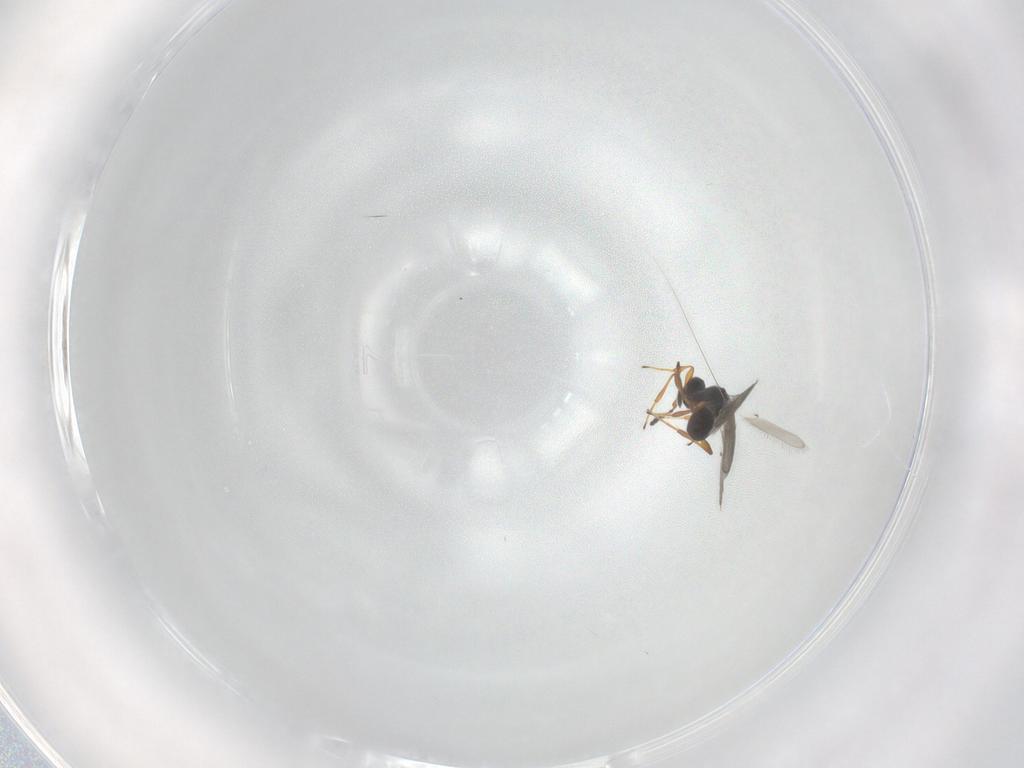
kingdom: Animalia
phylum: Arthropoda
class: Insecta
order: Hymenoptera
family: Platygastridae
